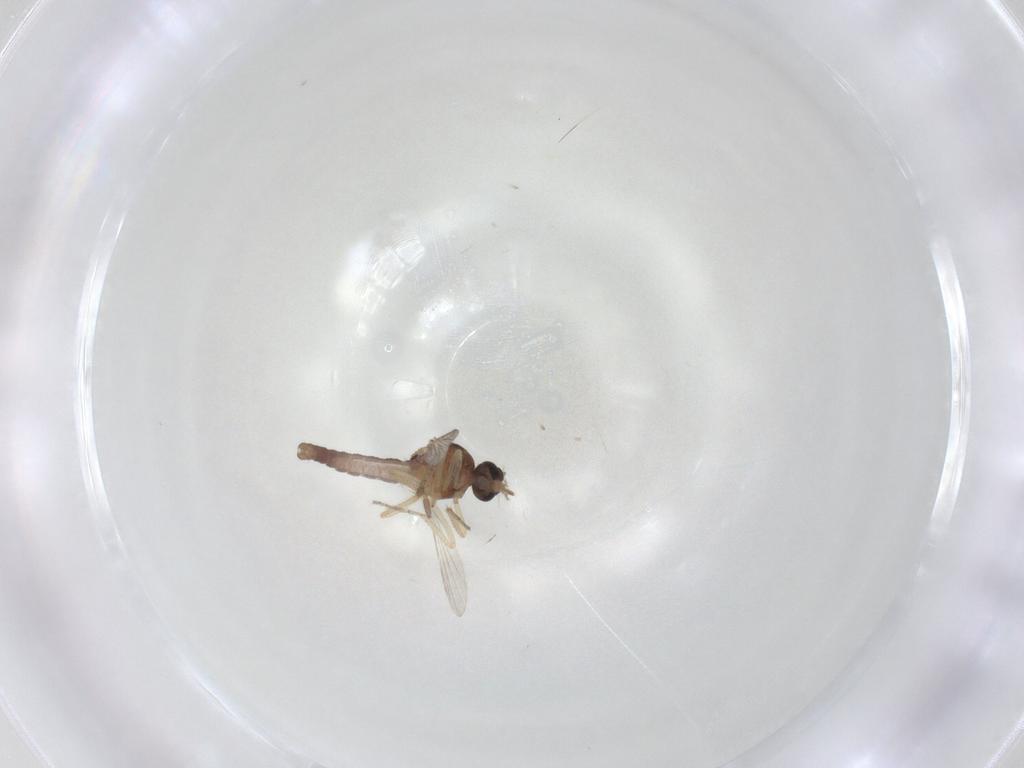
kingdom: Animalia
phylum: Arthropoda
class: Insecta
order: Diptera
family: Ceratopogonidae
